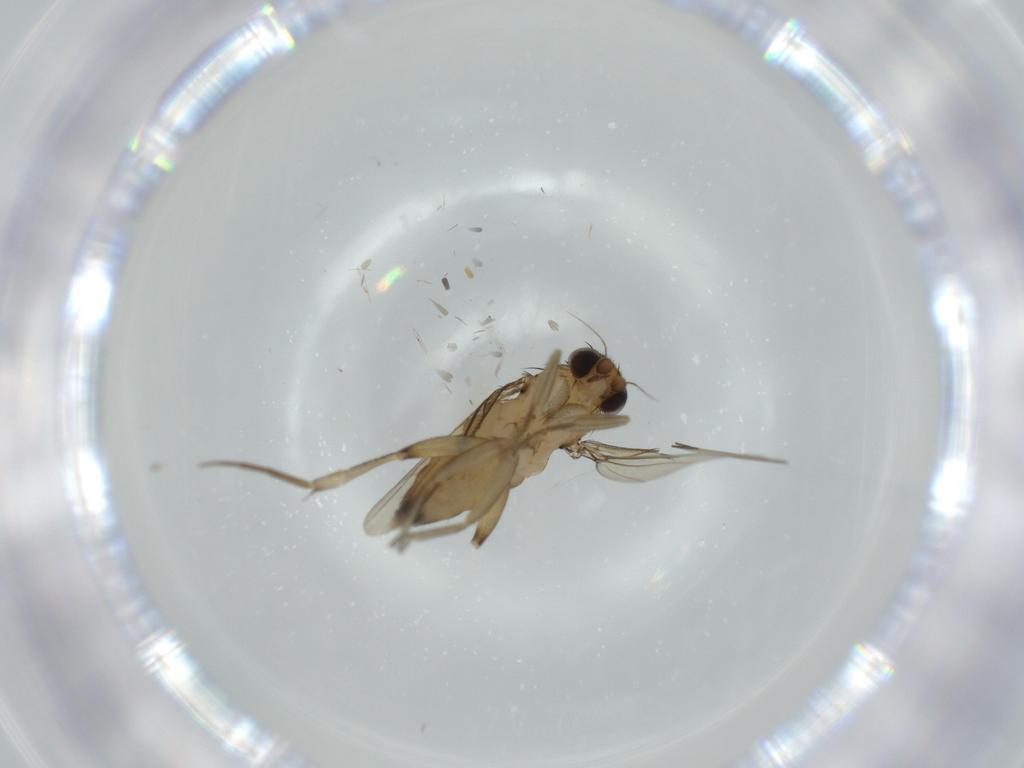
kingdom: Animalia
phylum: Arthropoda
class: Insecta
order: Diptera
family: Phoridae
